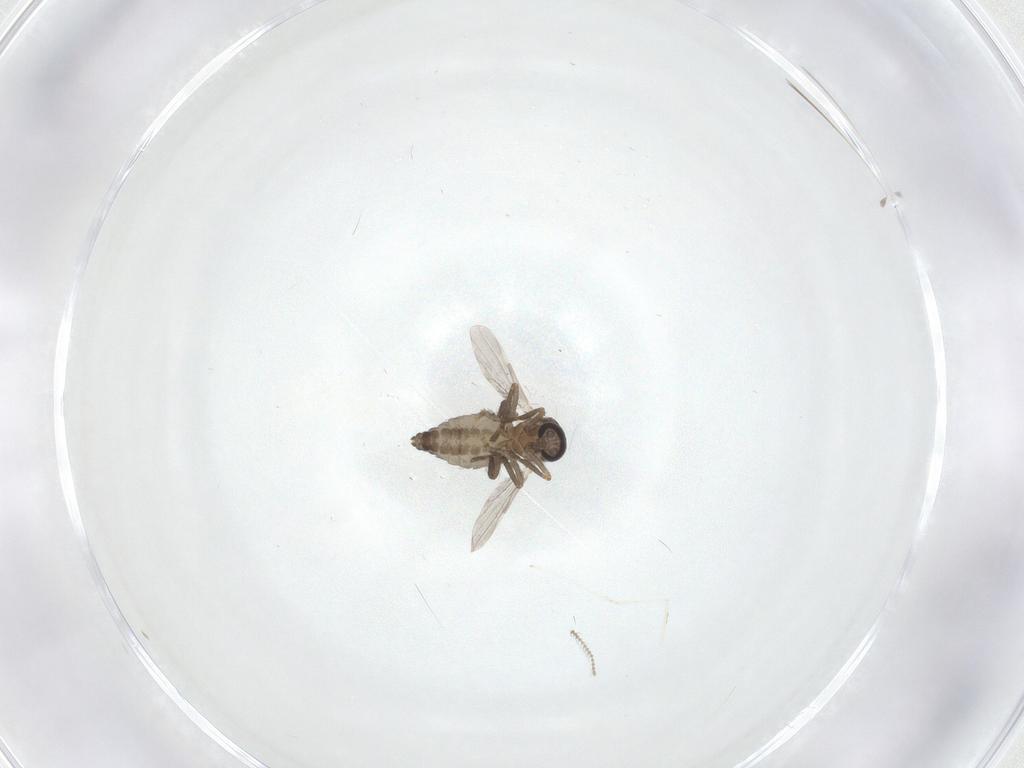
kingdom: Animalia
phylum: Arthropoda
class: Insecta
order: Diptera
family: Ceratopogonidae
